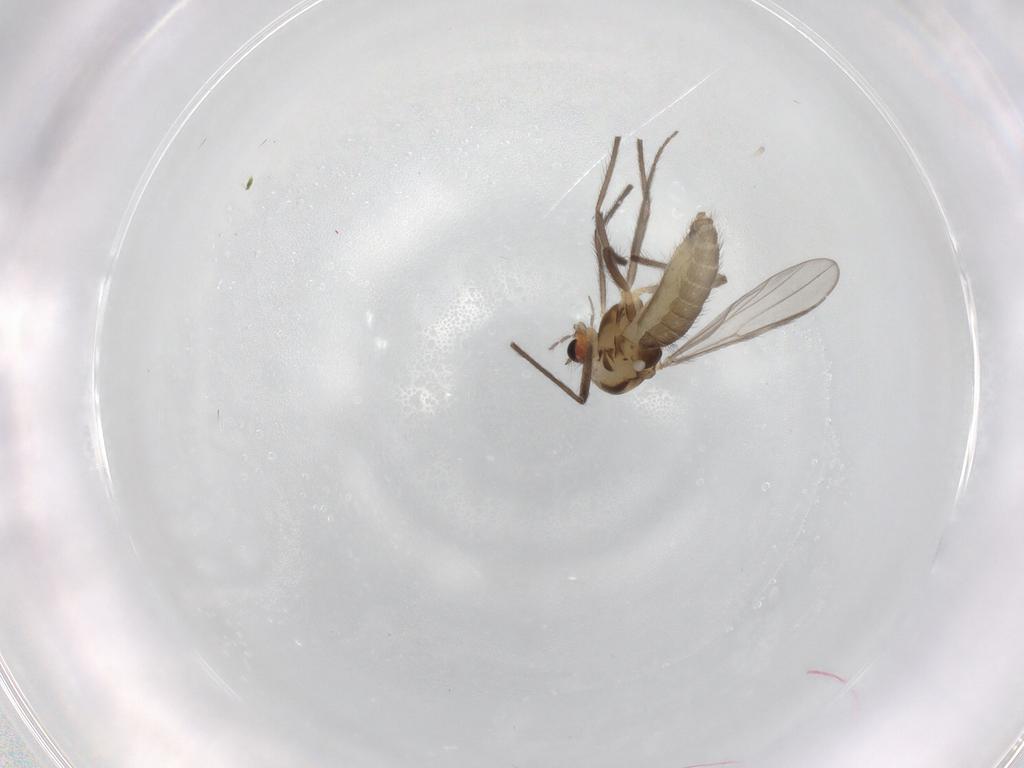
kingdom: Animalia
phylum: Arthropoda
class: Insecta
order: Diptera
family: Chironomidae
